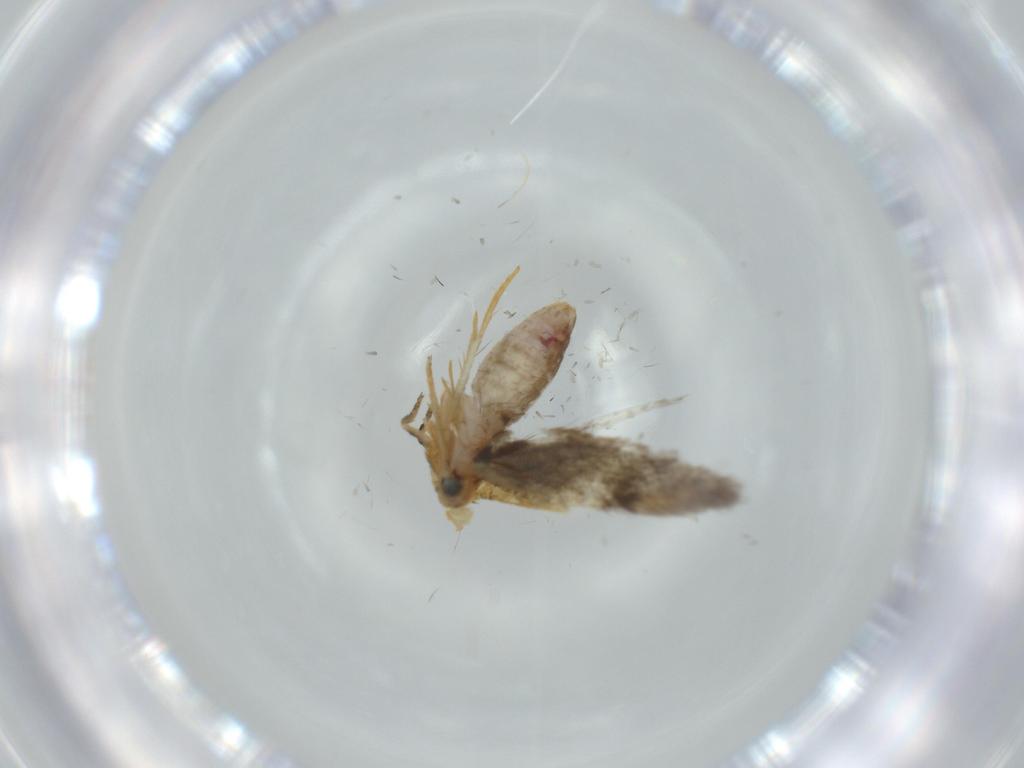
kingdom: Animalia
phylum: Arthropoda
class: Insecta
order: Lepidoptera
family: Nepticulidae
